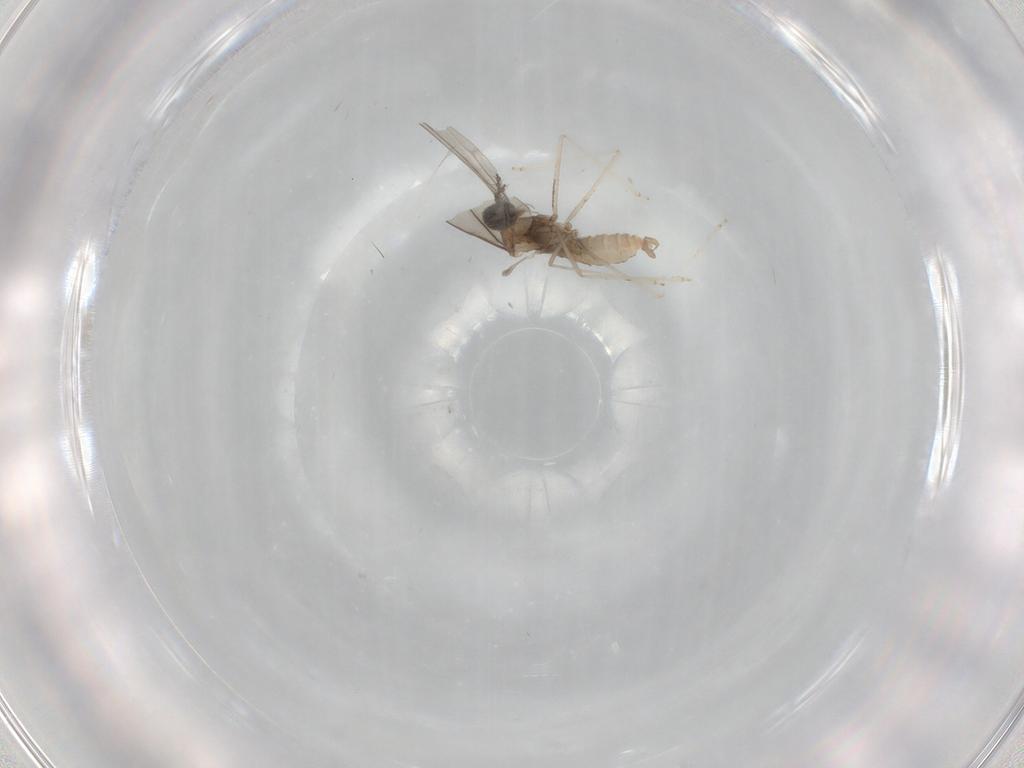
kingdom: Animalia
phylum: Arthropoda
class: Insecta
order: Diptera
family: Cecidomyiidae
